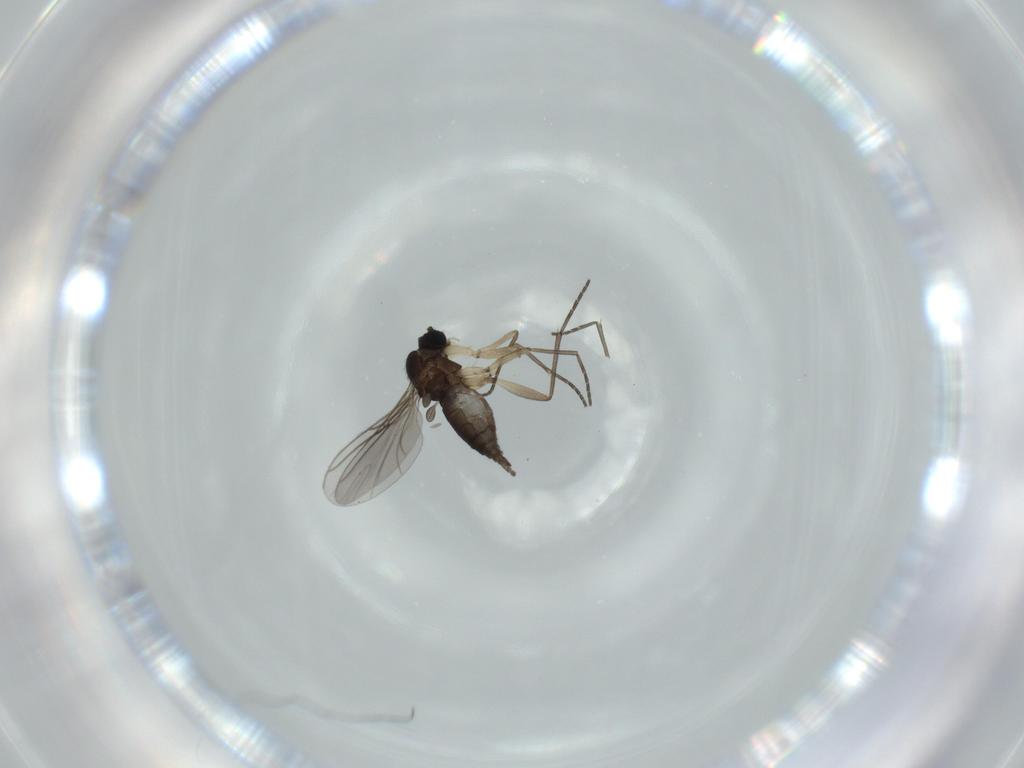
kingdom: Animalia
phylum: Arthropoda
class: Insecta
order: Diptera
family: Sciaridae
